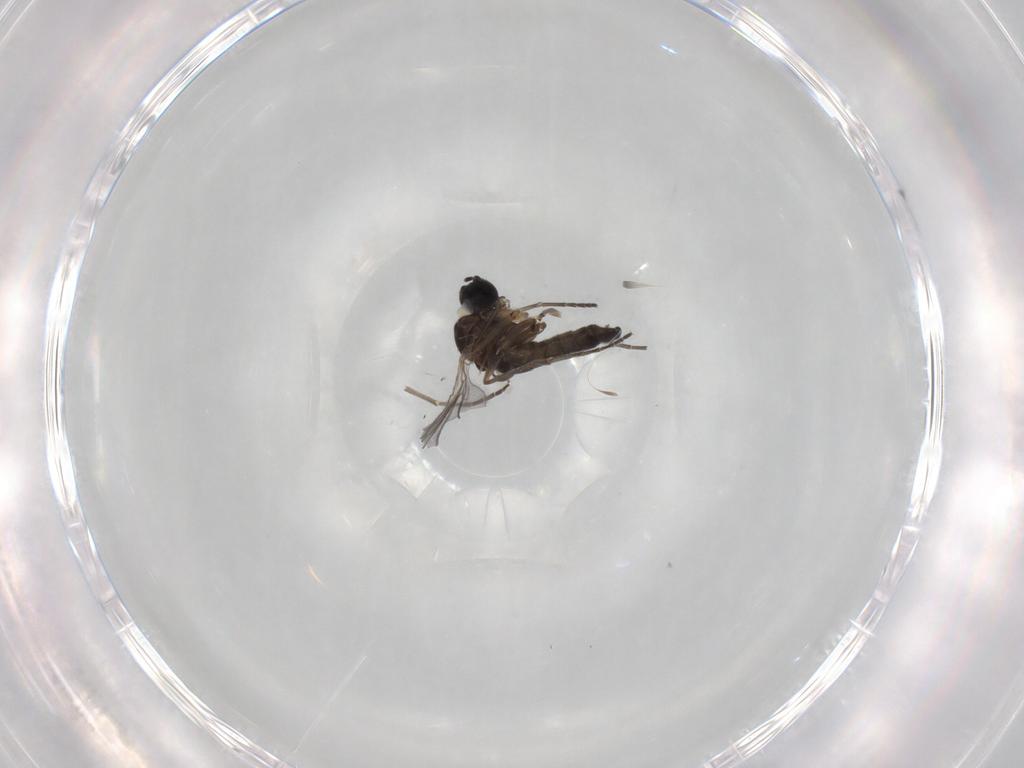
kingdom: Animalia
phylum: Arthropoda
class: Insecta
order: Diptera
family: Sciaridae
